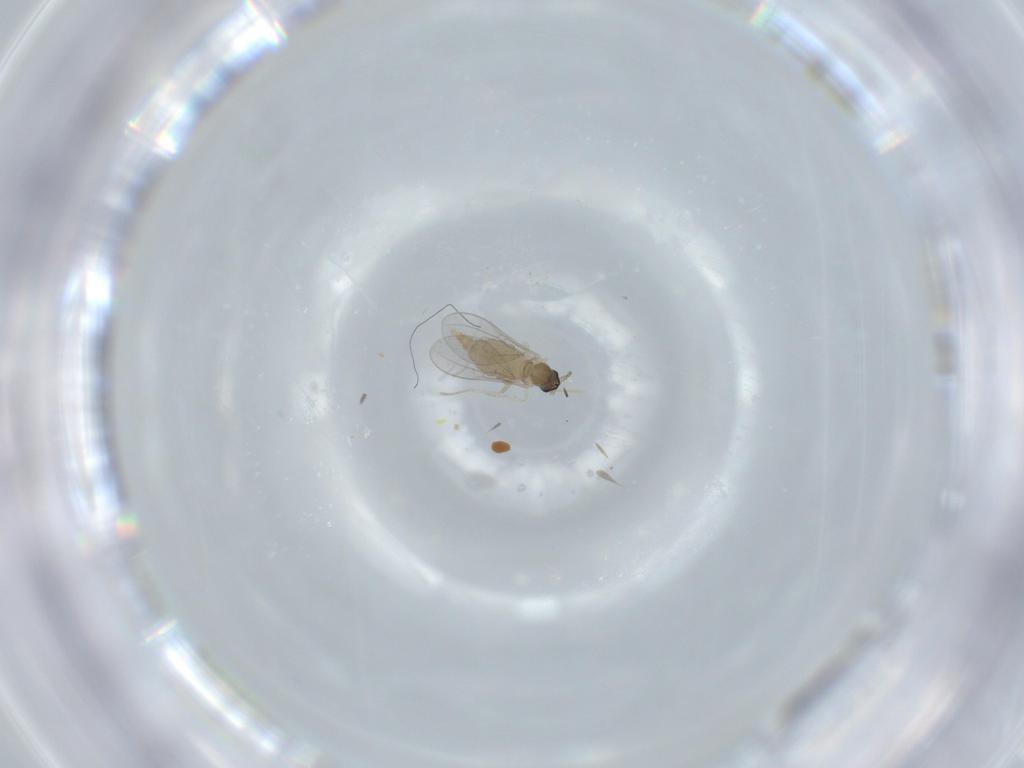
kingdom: Animalia
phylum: Arthropoda
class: Insecta
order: Diptera
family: Cecidomyiidae
